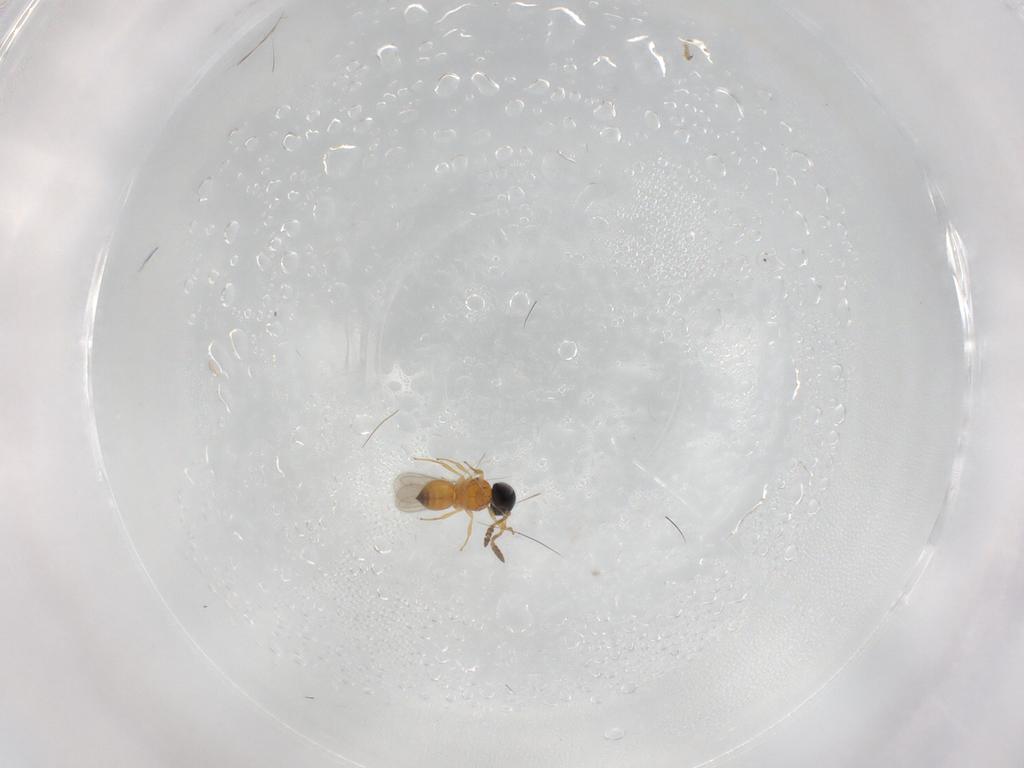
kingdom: Animalia
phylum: Arthropoda
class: Insecta
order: Hymenoptera
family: Scelionidae
